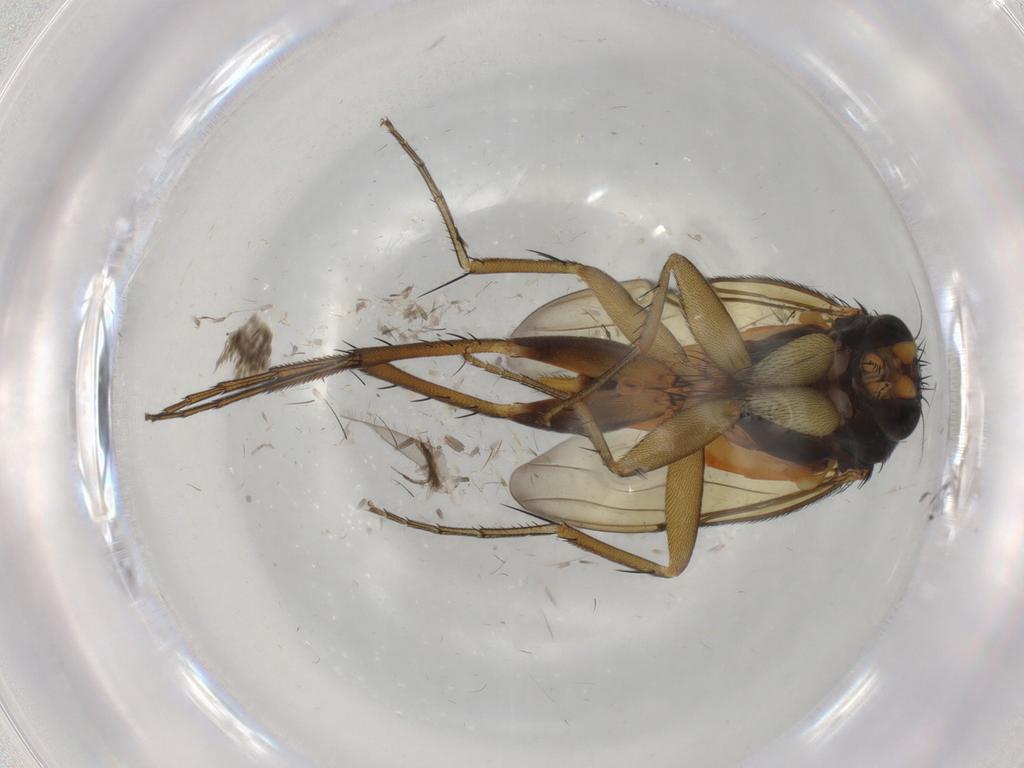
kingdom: Animalia
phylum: Arthropoda
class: Insecta
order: Diptera
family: Phoridae
